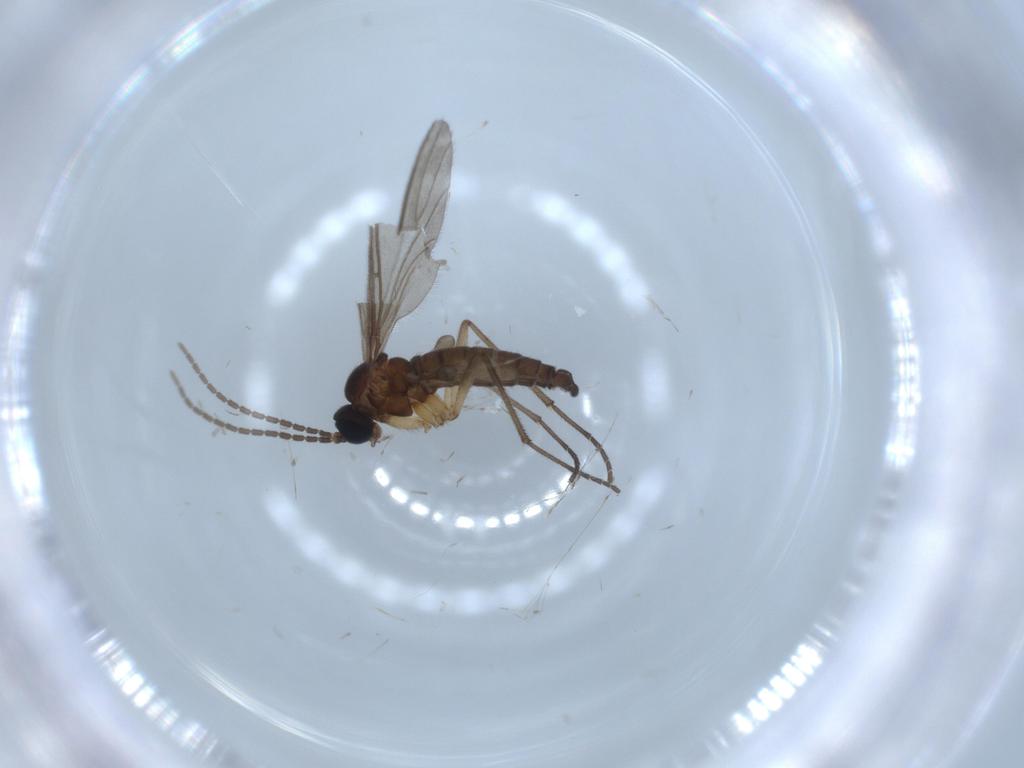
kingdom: Animalia
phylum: Arthropoda
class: Insecta
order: Diptera
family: Sciaridae
